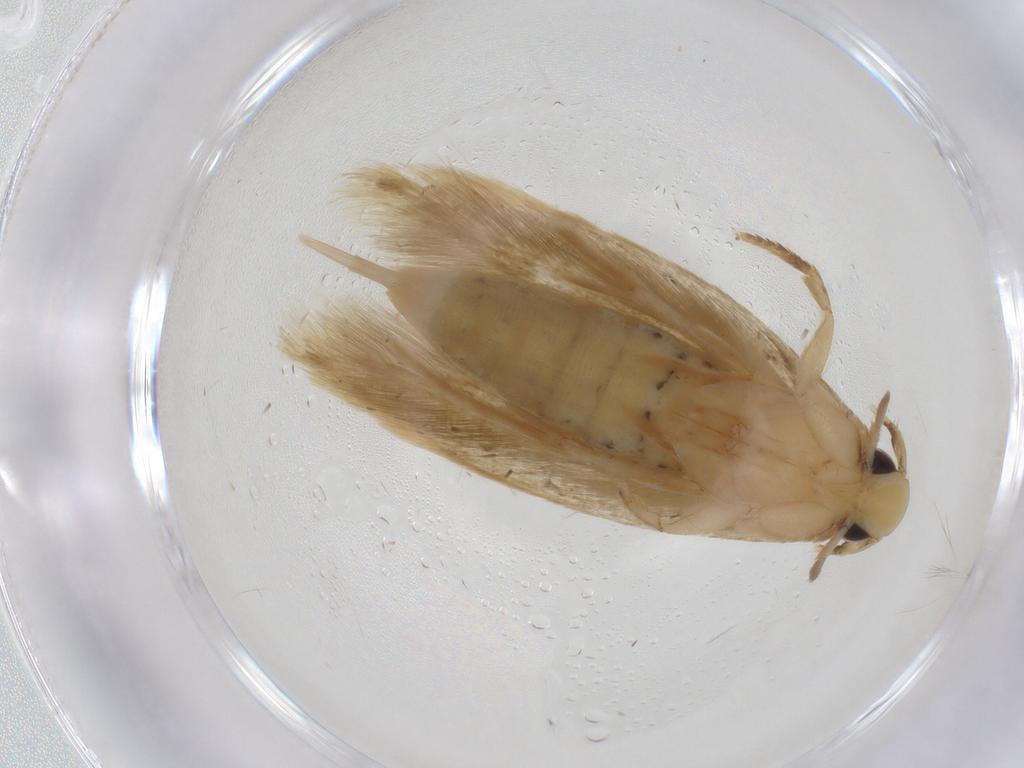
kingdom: Animalia
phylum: Arthropoda
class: Insecta
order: Lepidoptera
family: Tineidae
